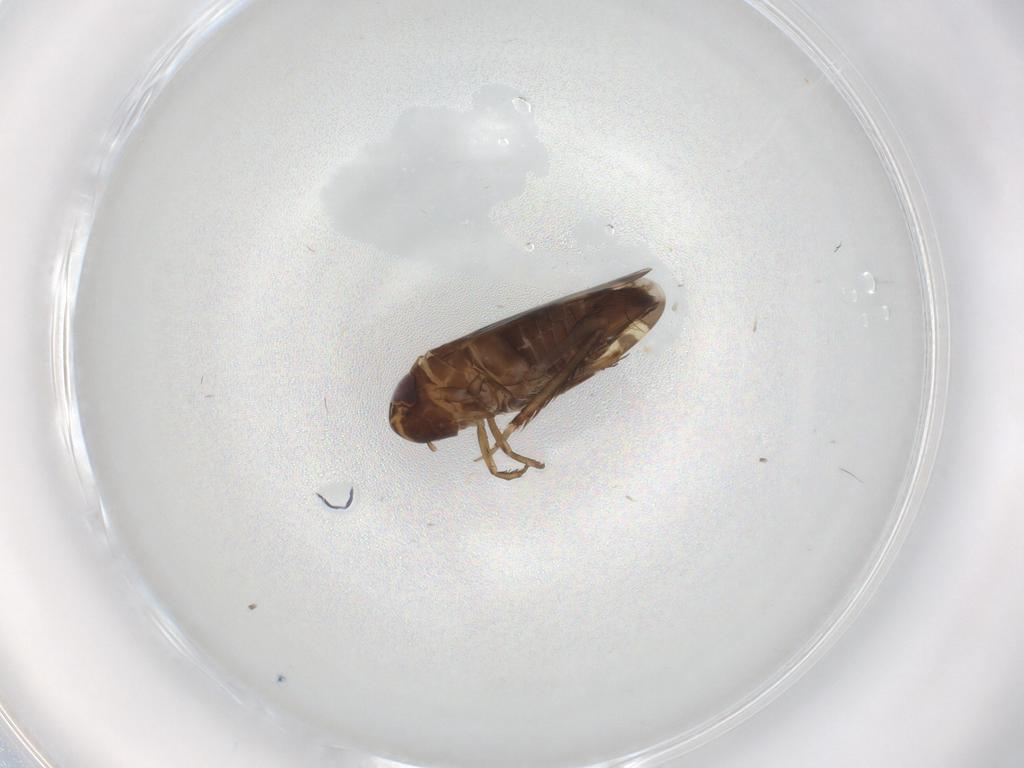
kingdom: Animalia
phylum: Arthropoda
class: Insecta
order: Hemiptera
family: Cicadellidae
